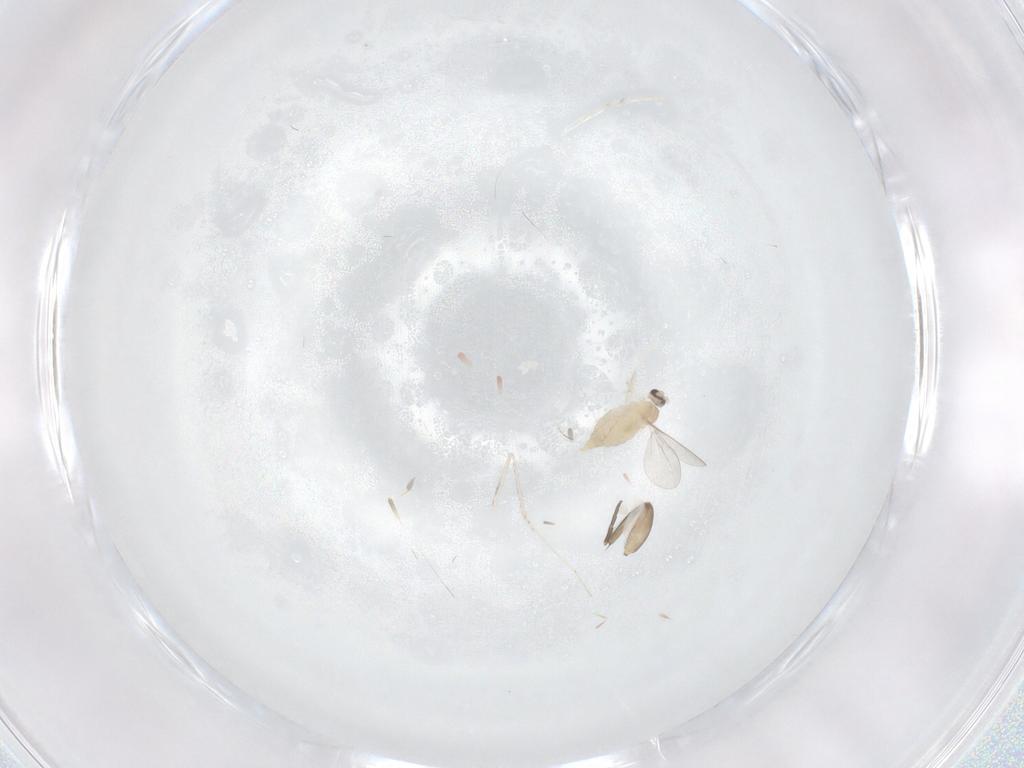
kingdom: Animalia
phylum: Arthropoda
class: Insecta
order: Diptera
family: Cecidomyiidae
